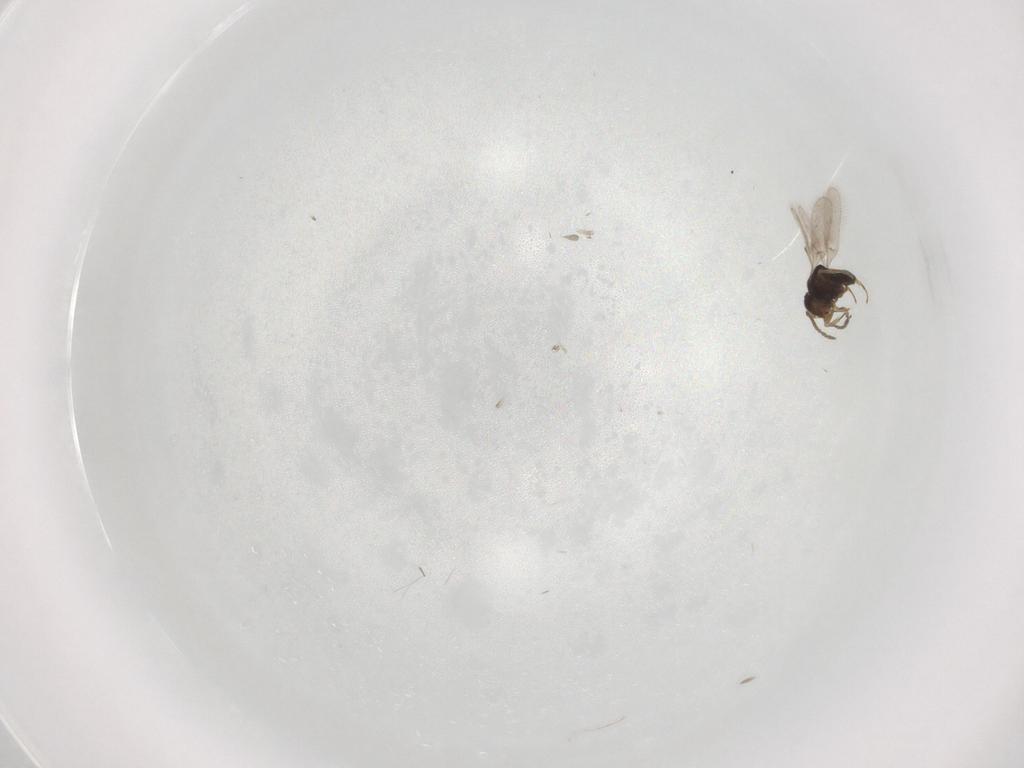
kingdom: Animalia
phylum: Arthropoda
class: Insecta
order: Hymenoptera
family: Scelionidae
